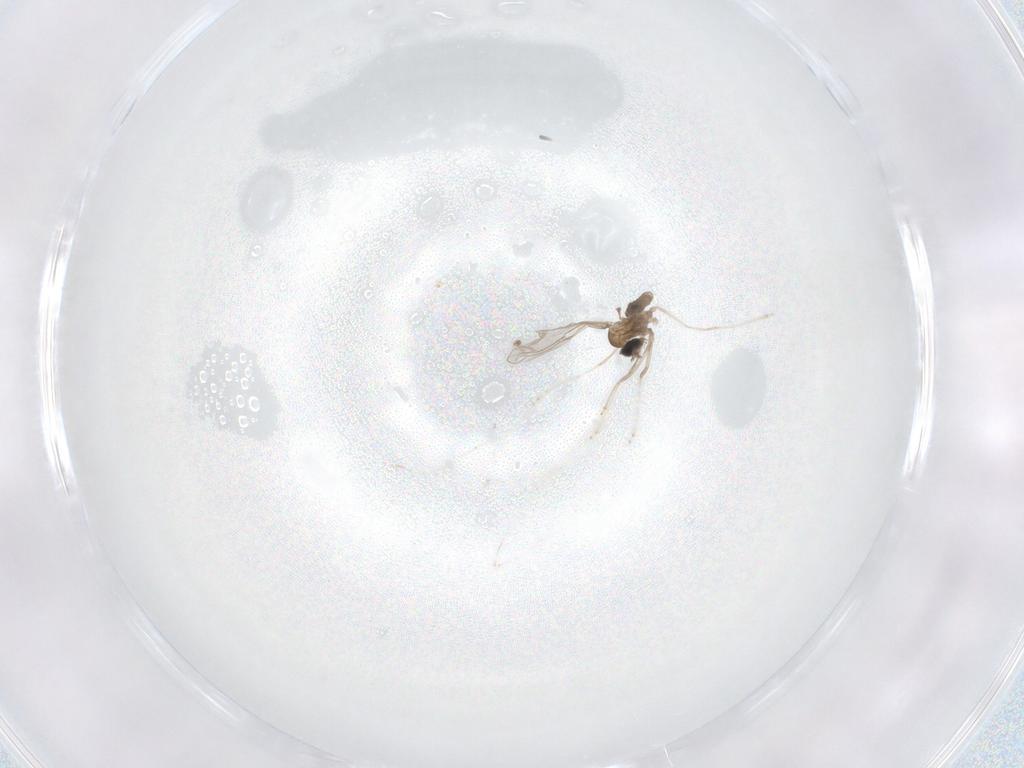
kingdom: Animalia
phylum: Arthropoda
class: Insecta
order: Diptera
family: Cecidomyiidae
